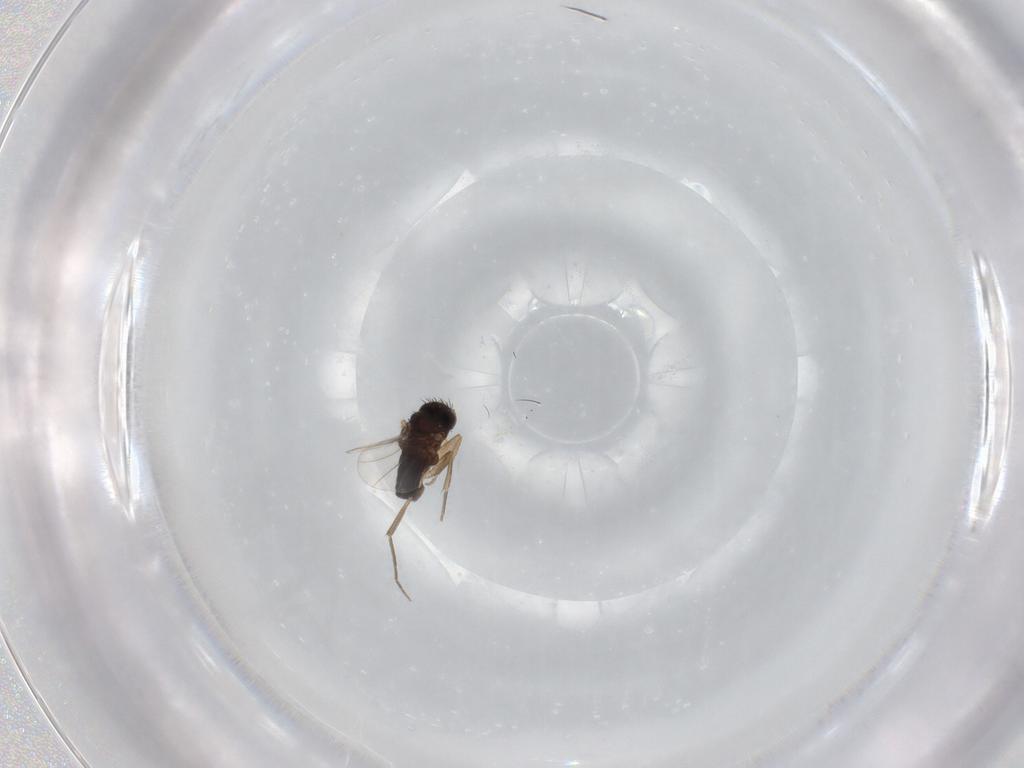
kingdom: Animalia
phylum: Arthropoda
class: Insecta
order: Diptera
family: Phoridae
